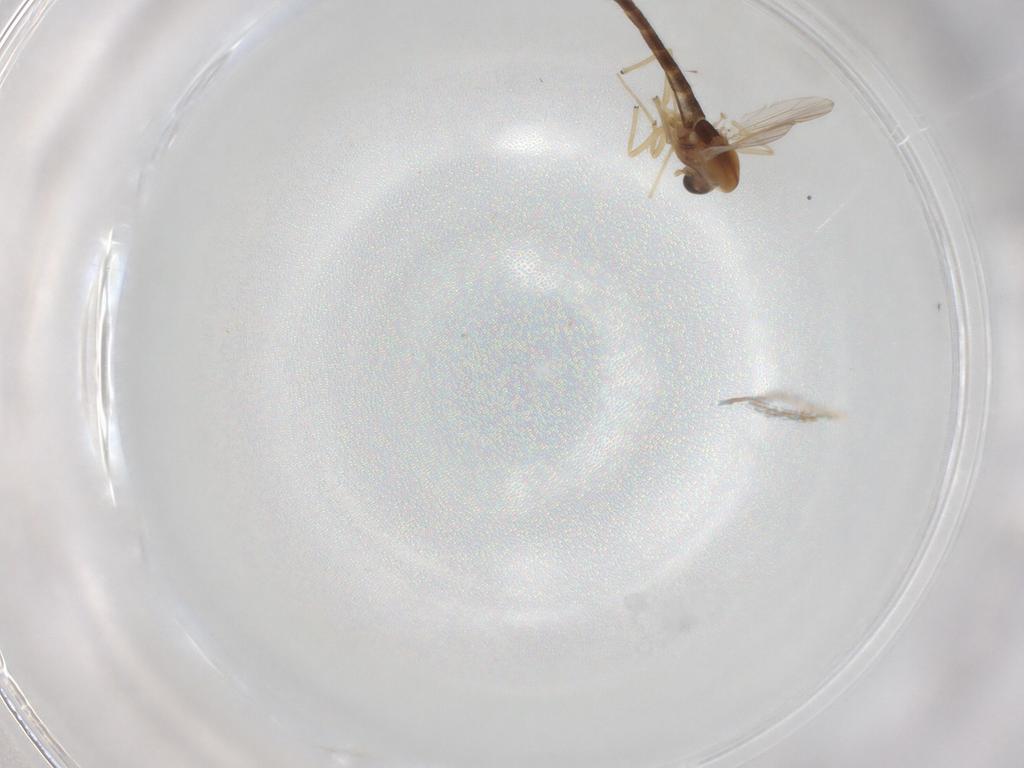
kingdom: Animalia
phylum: Arthropoda
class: Insecta
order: Diptera
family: Chironomidae
